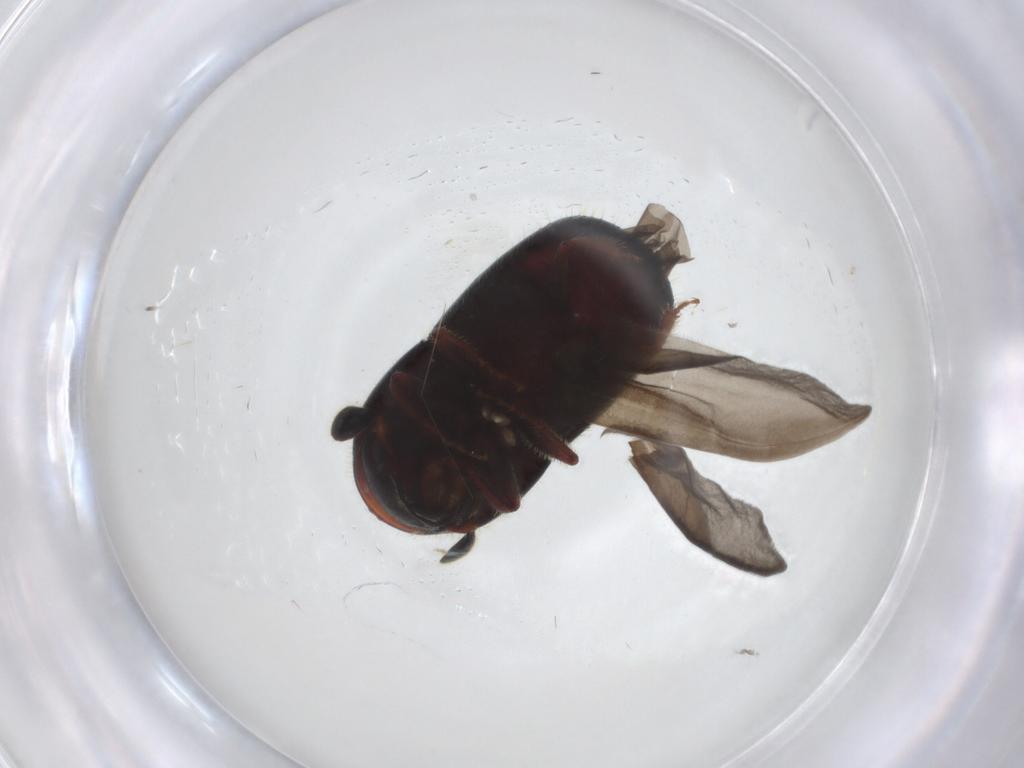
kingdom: Animalia
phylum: Arthropoda
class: Insecta
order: Coleoptera
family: Curculionidae
